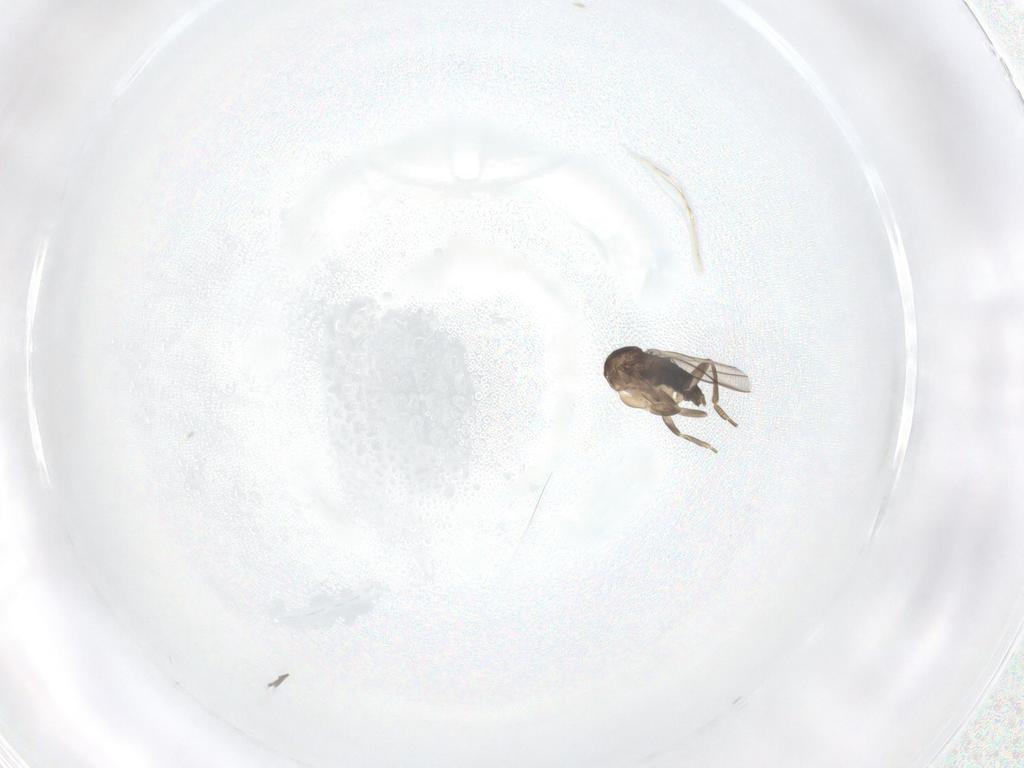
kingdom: Animalia
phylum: Arthropoda
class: Insecta
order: Diptera
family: Phoridae
